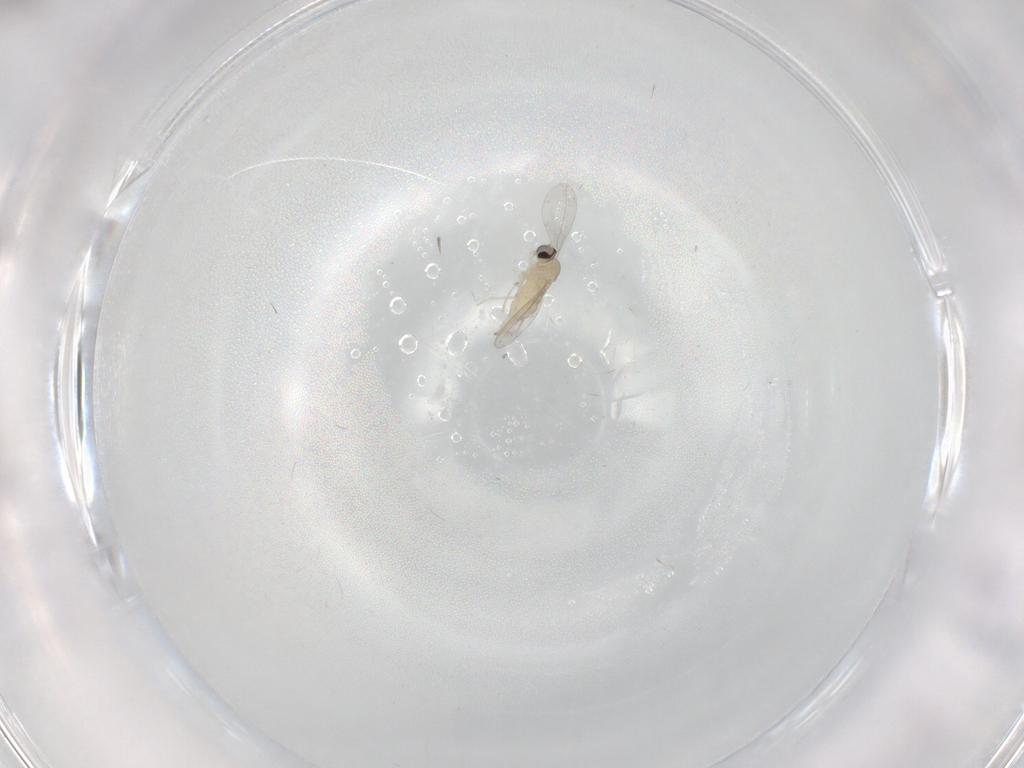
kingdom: Animalia
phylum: Arthropoda
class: Insecta
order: Diptera
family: Cecidomyiidae
